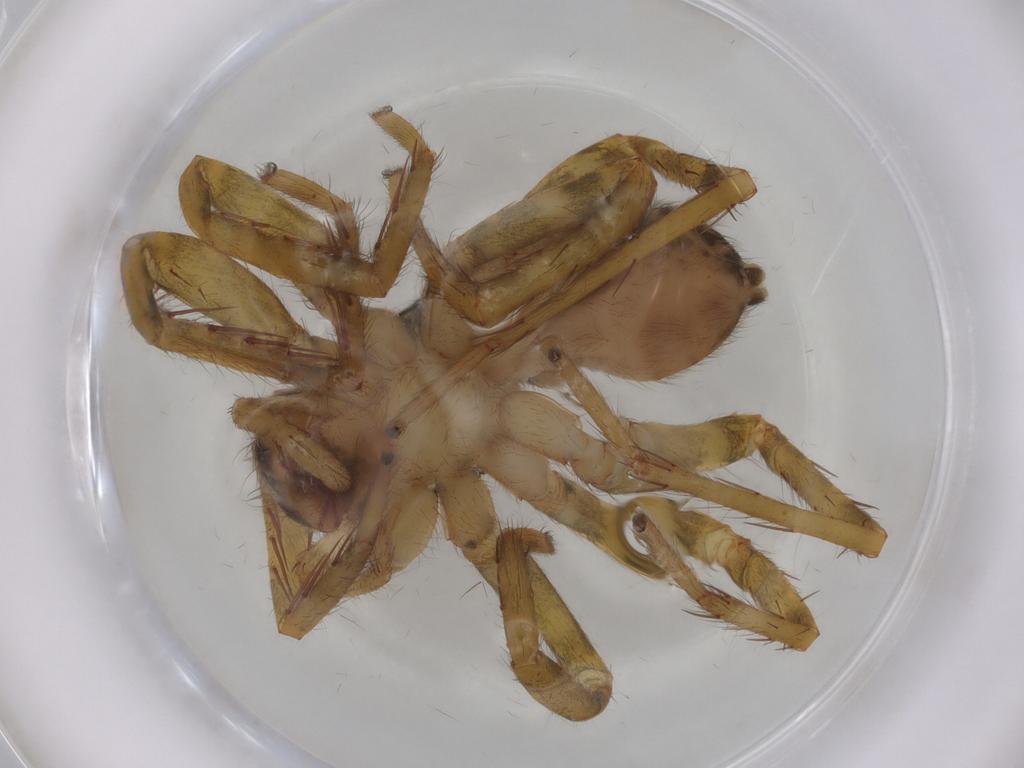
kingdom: Animalia
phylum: Arthropoda
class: Arachnida
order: Araneae
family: Ctenidae
